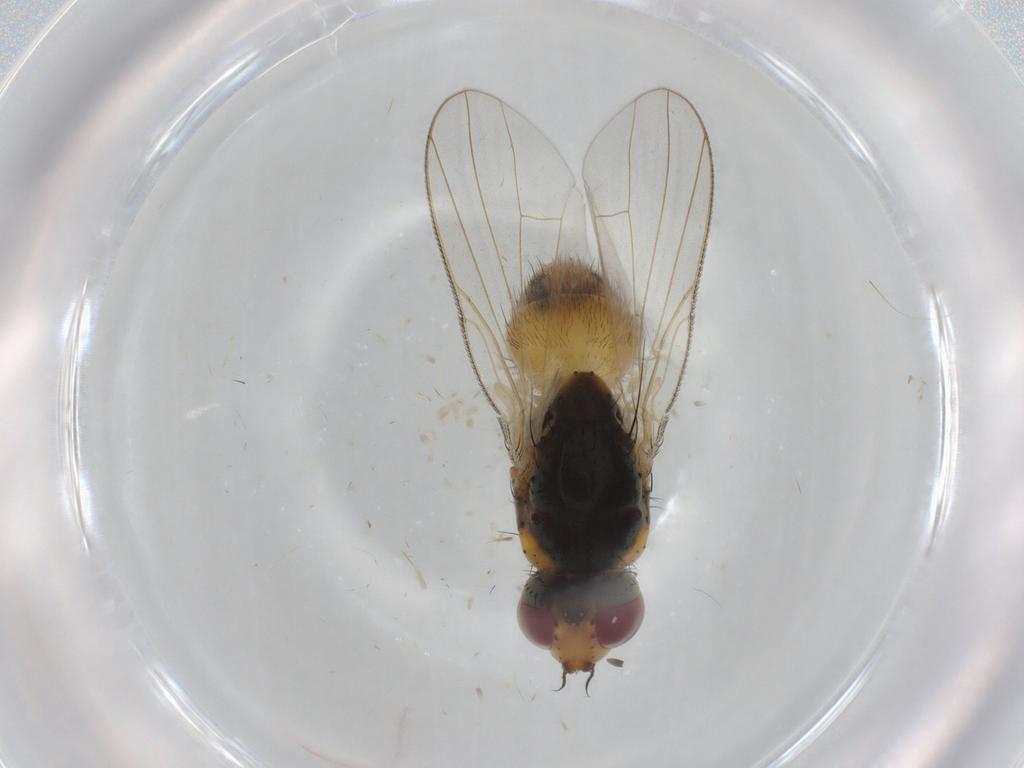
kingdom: Animalia
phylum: Arthropoda
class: Insecta
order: Diptera
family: Muscidae
